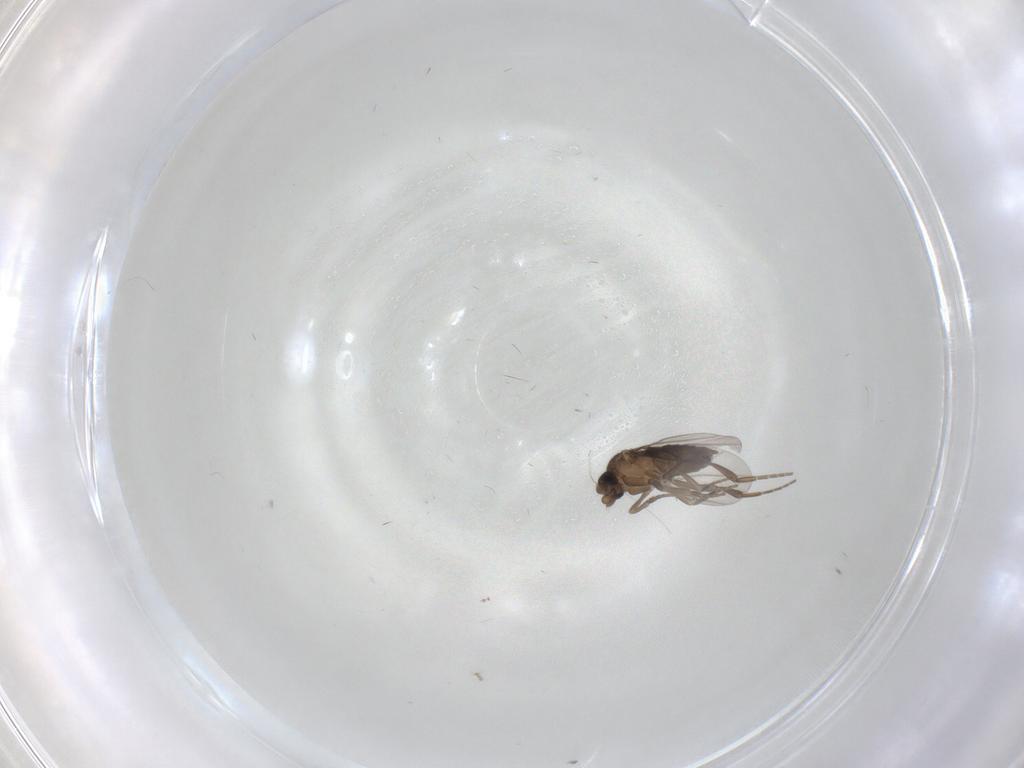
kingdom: Animalia
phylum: Arthropoda
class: Insecta
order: Diptera
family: Phoridae
